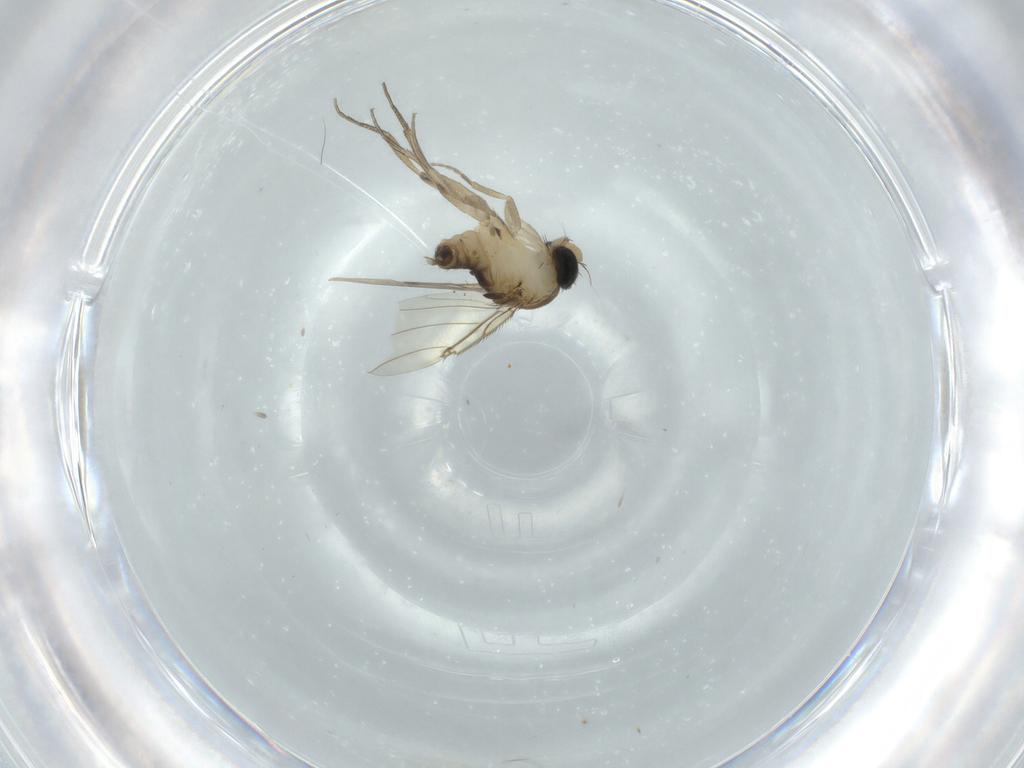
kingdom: Animalia
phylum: Arthropoda
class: Insecta
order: Diptera
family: Phoridae
